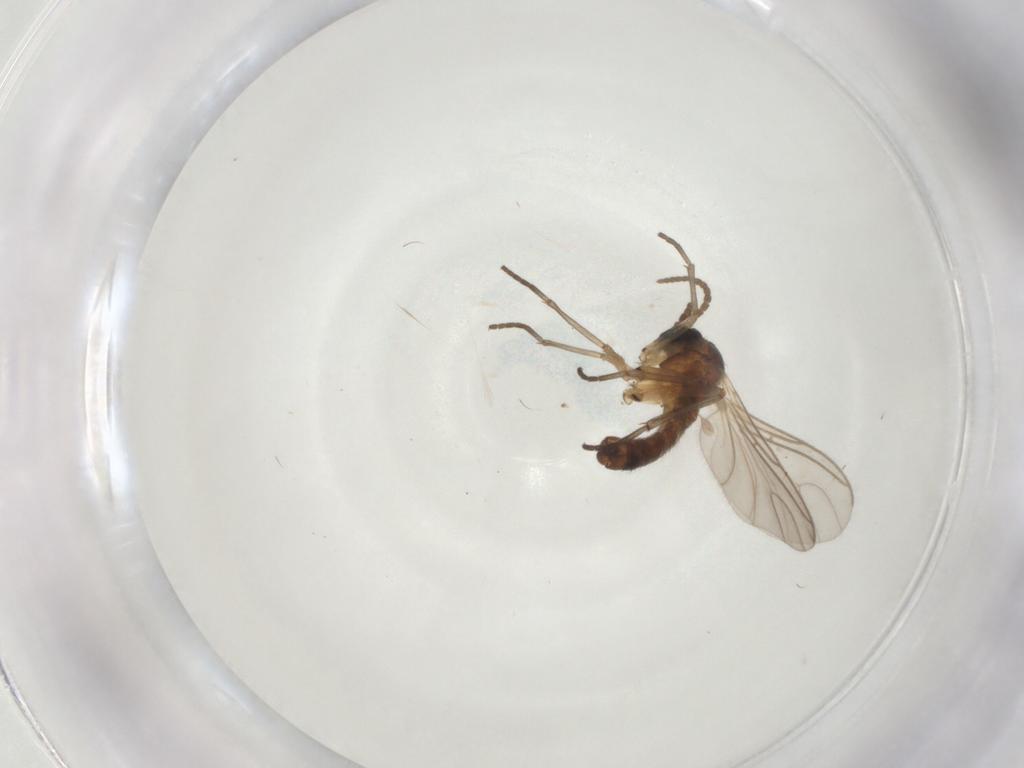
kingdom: Animalia
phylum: Arthropoda
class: Insecta
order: Diptera
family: Sciaridae
